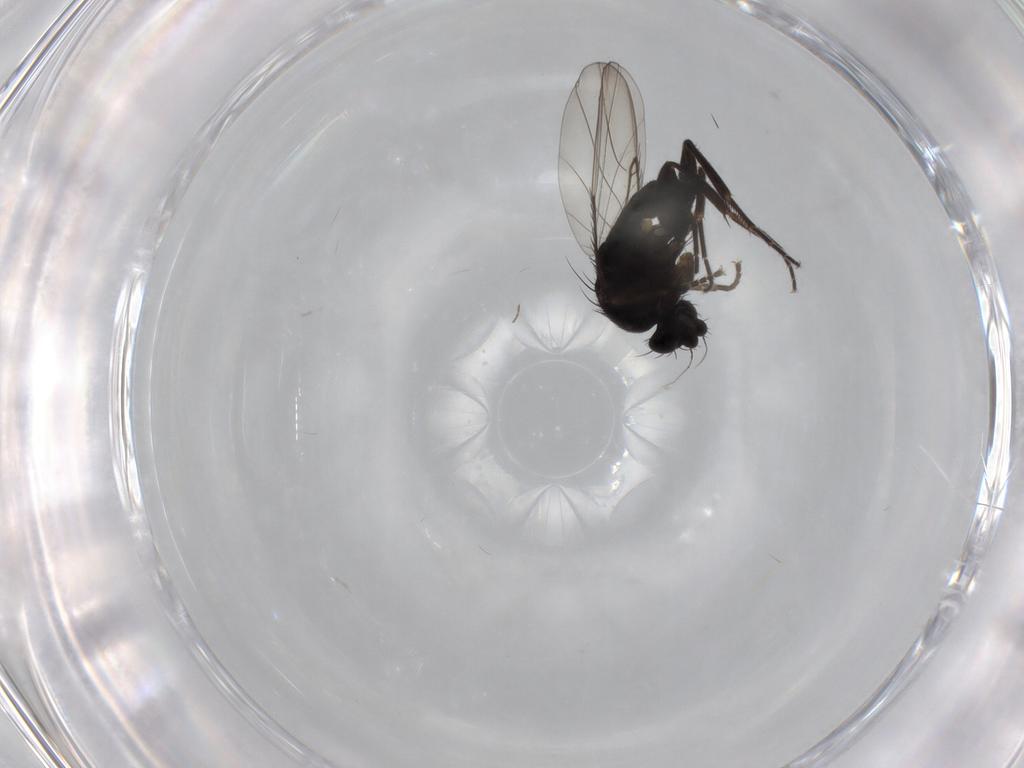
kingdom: Animalia
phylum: Arthropoda
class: Insecta
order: Diptera
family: Phoridae
